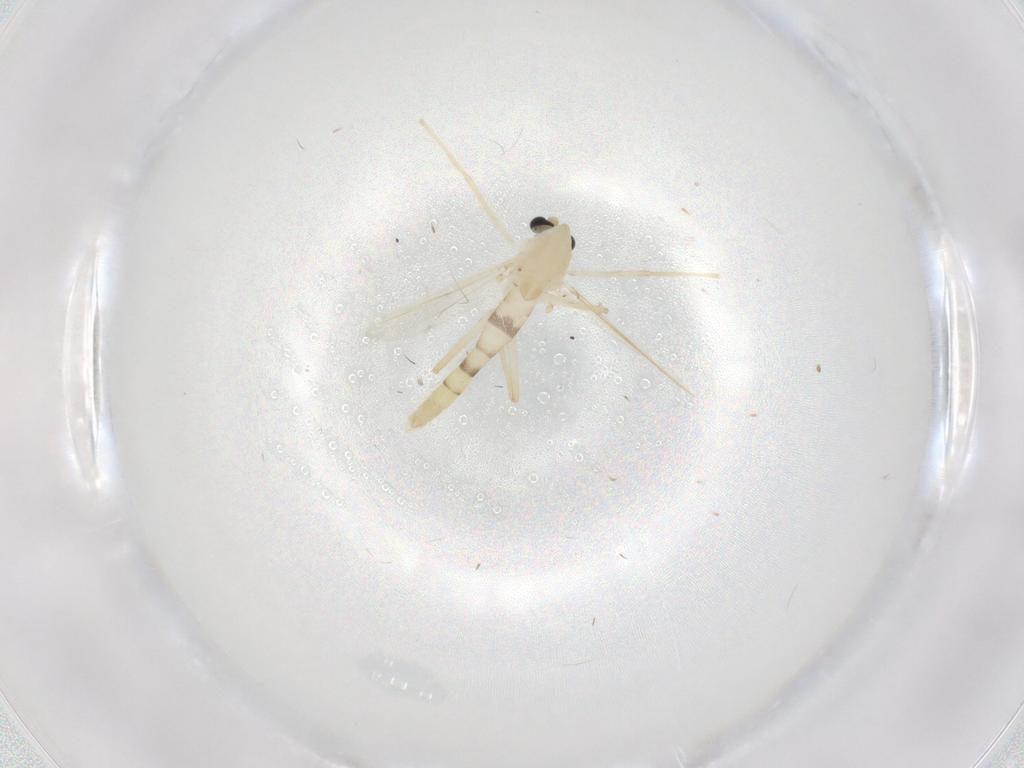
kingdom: Animalia
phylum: Arthropoda
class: Insecta
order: Diptera
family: Chironomidae
